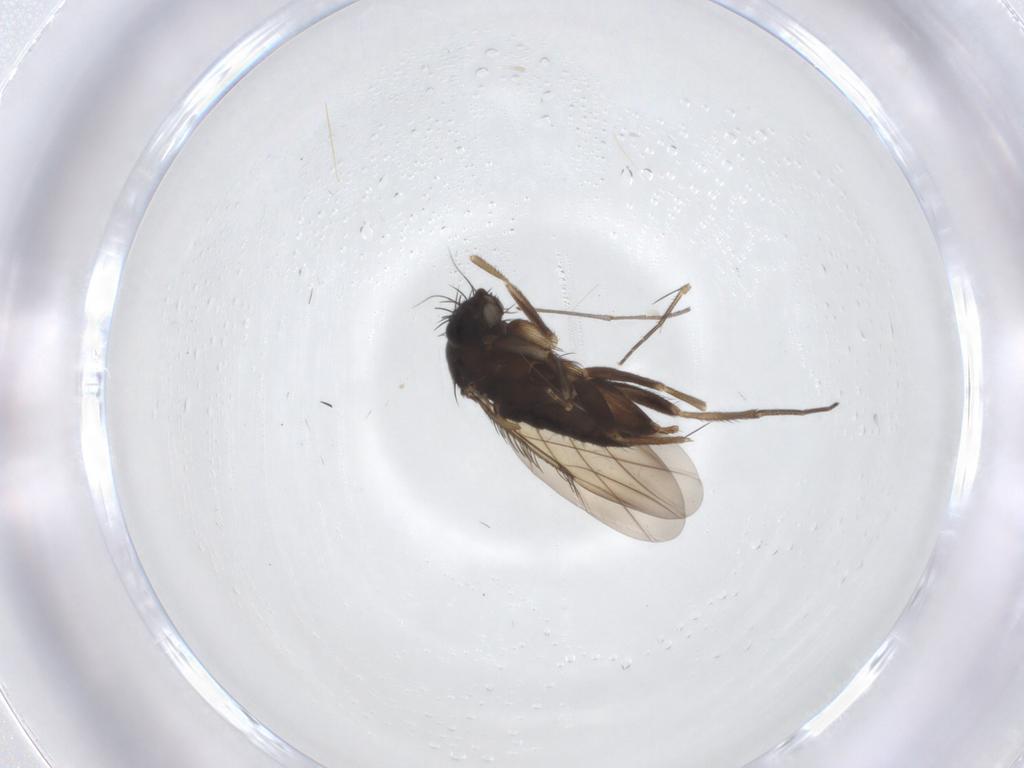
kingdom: Animalia
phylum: Arthropoda
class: Insecta
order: Diptera
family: Phoridae
